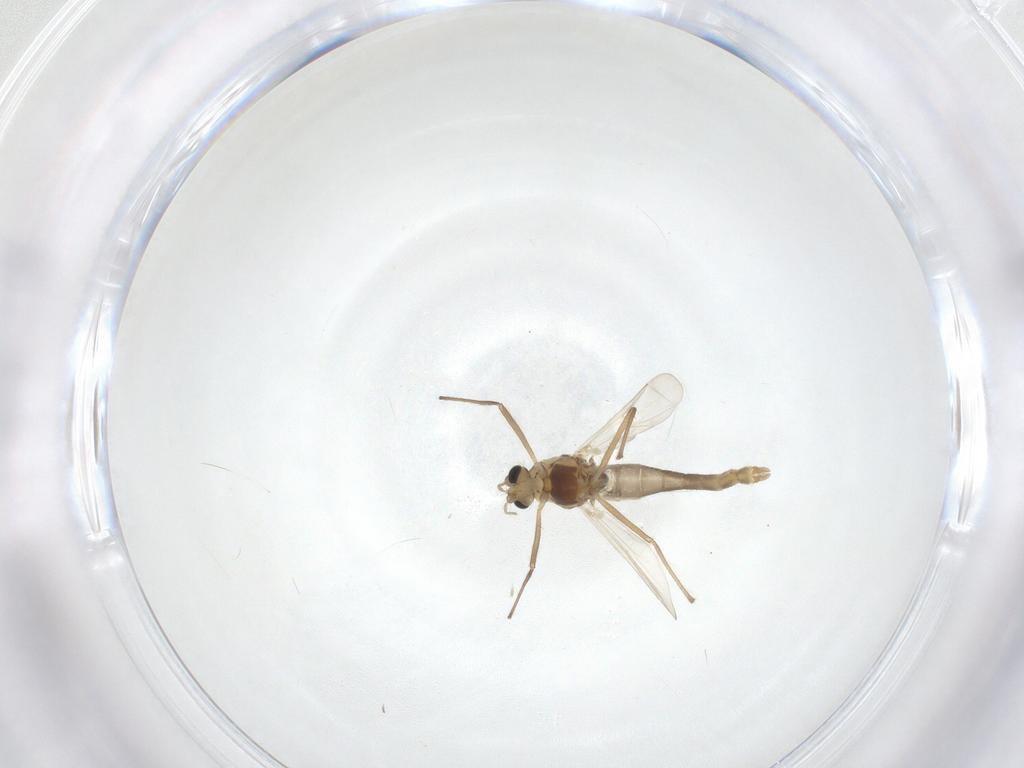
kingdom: Animalia
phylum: Arthropoda
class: Insecta
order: Diptera
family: Chironomidae
